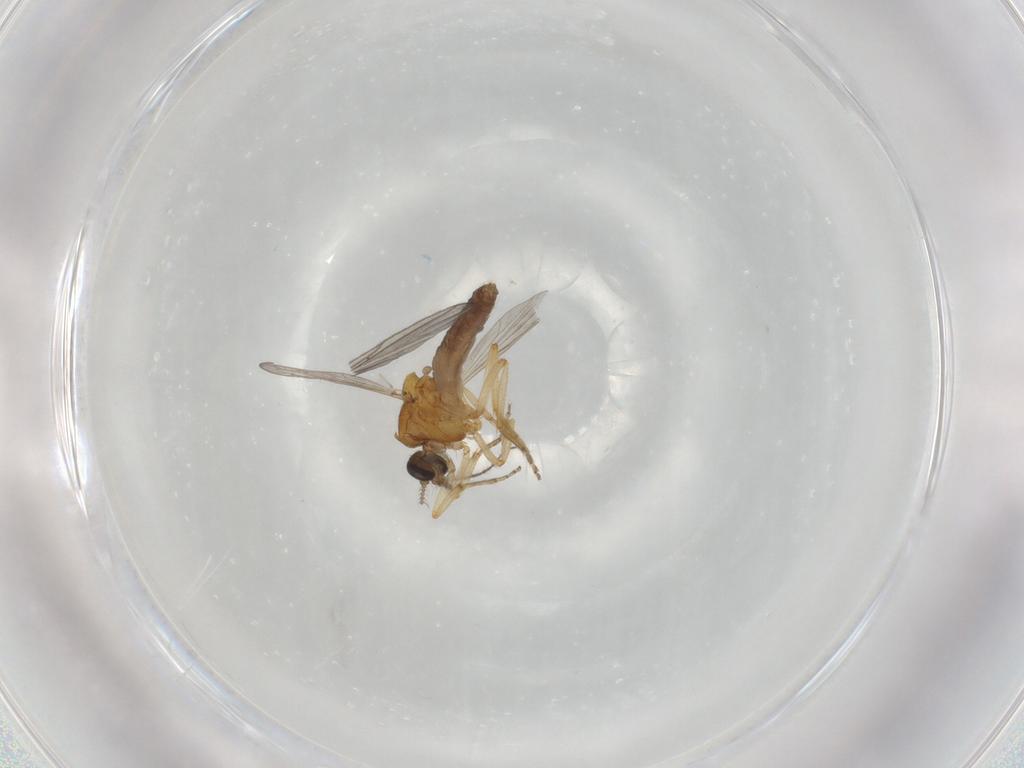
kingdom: Animalia
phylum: Arthropoda
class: Insecta
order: Diptera
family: Ceratopogonidae
